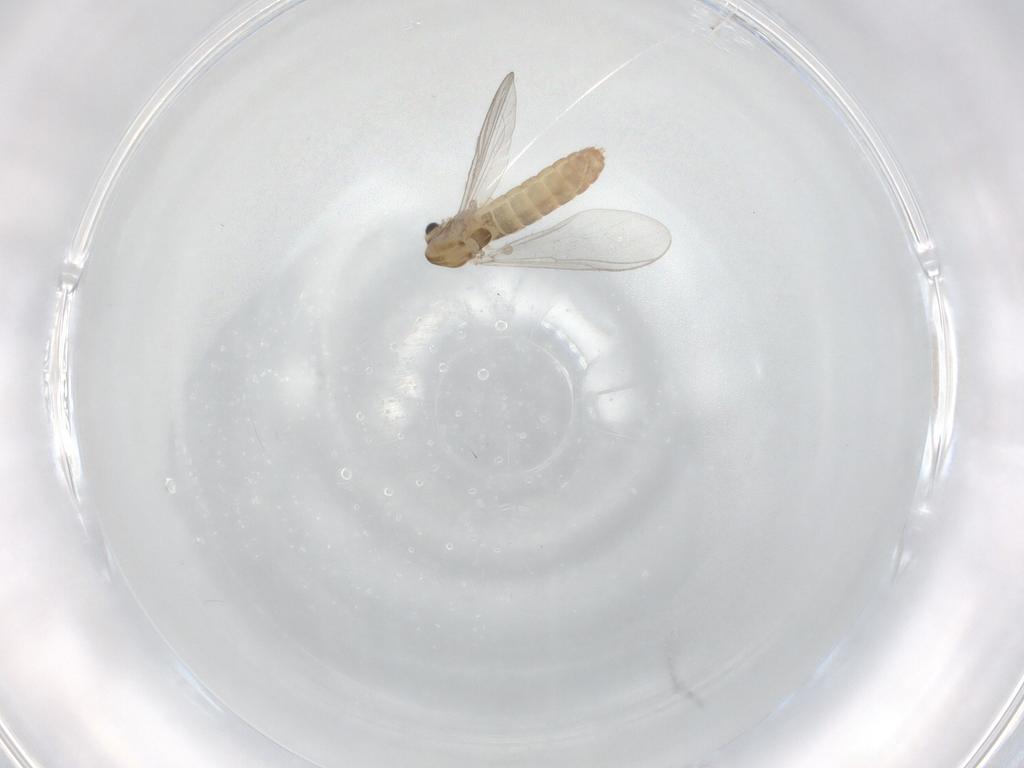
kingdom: Animalia
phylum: Arthropoda
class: Insecta
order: Diptera
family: Chironomidae
